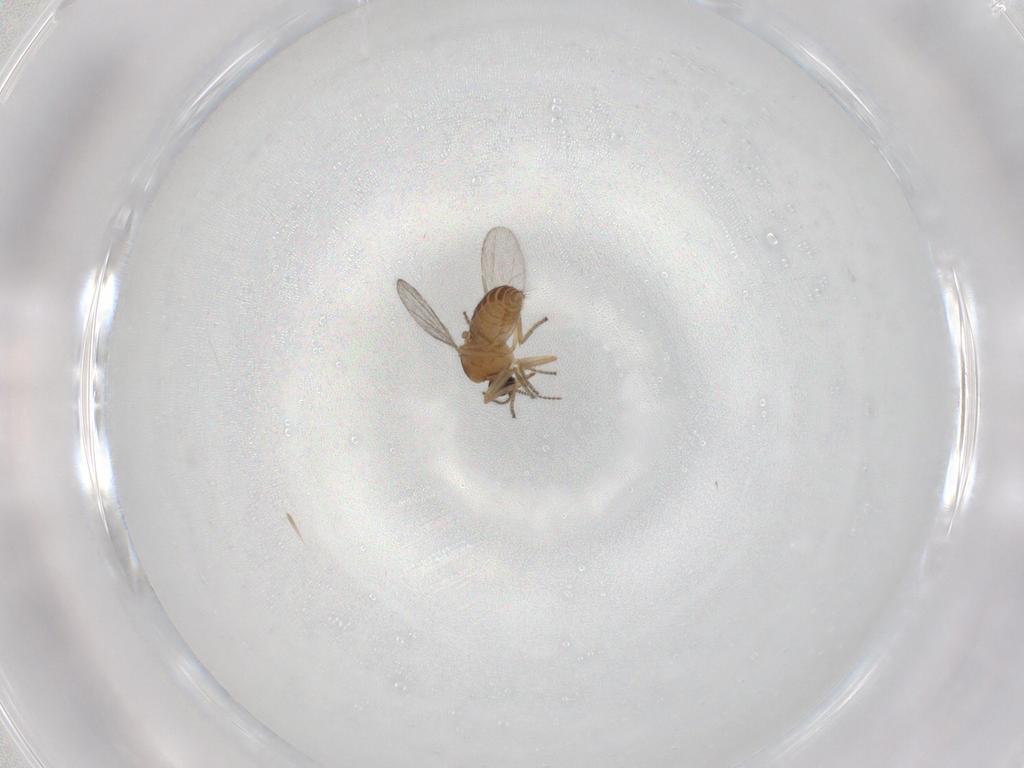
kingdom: Animalia
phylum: Arthropoda
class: Insecta
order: Diptera
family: Ceratopogonidae
